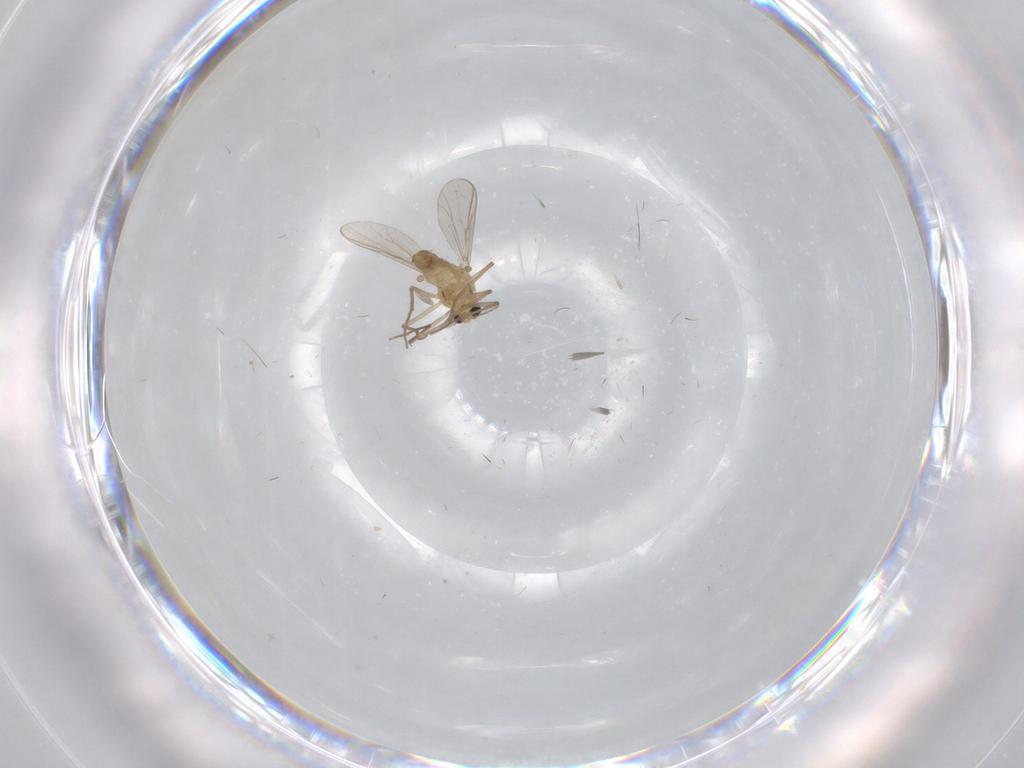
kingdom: Animalia
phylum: Arthropoda
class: Insecta
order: Diptera
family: Chironomidae
